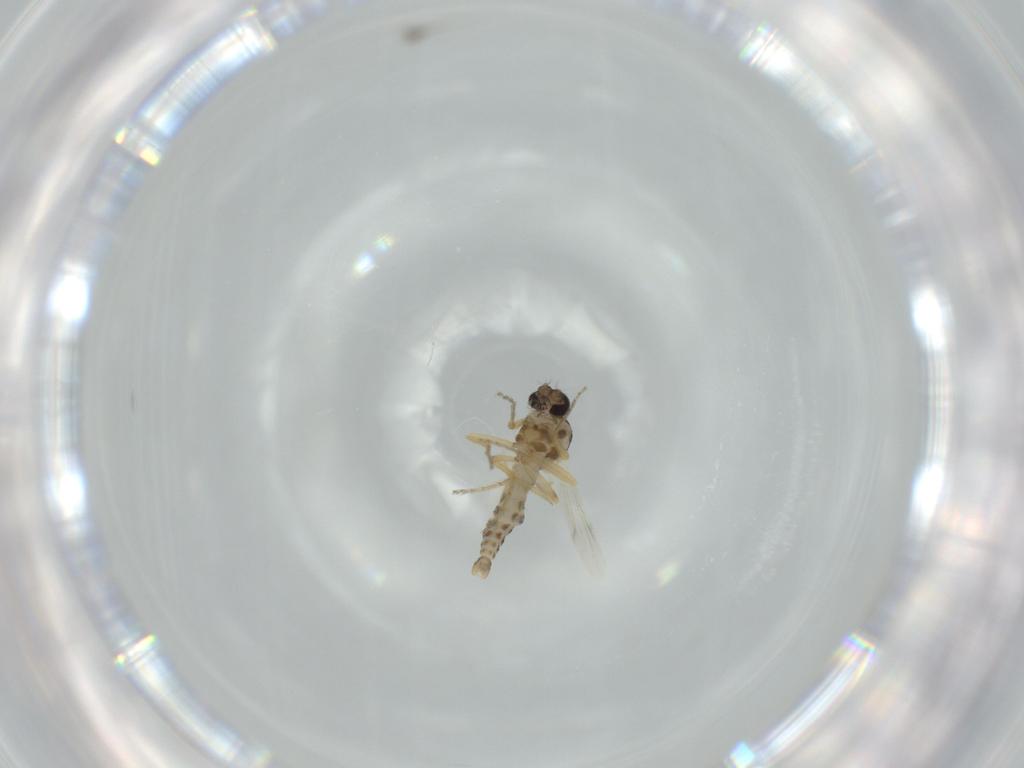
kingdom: Animalia
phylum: Arthropoda
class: Insecta
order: Diptera
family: Ceratopogonidae
